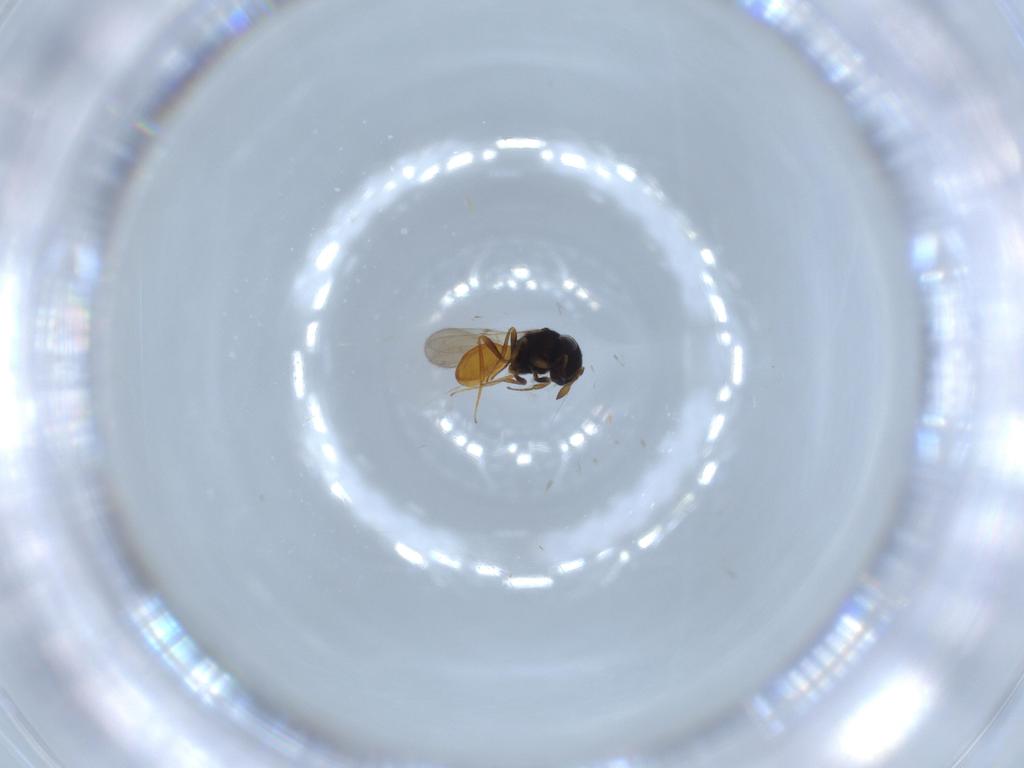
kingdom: Animalia
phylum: Arthropoda
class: Insecta
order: Hymenoptera
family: Scelionidae
